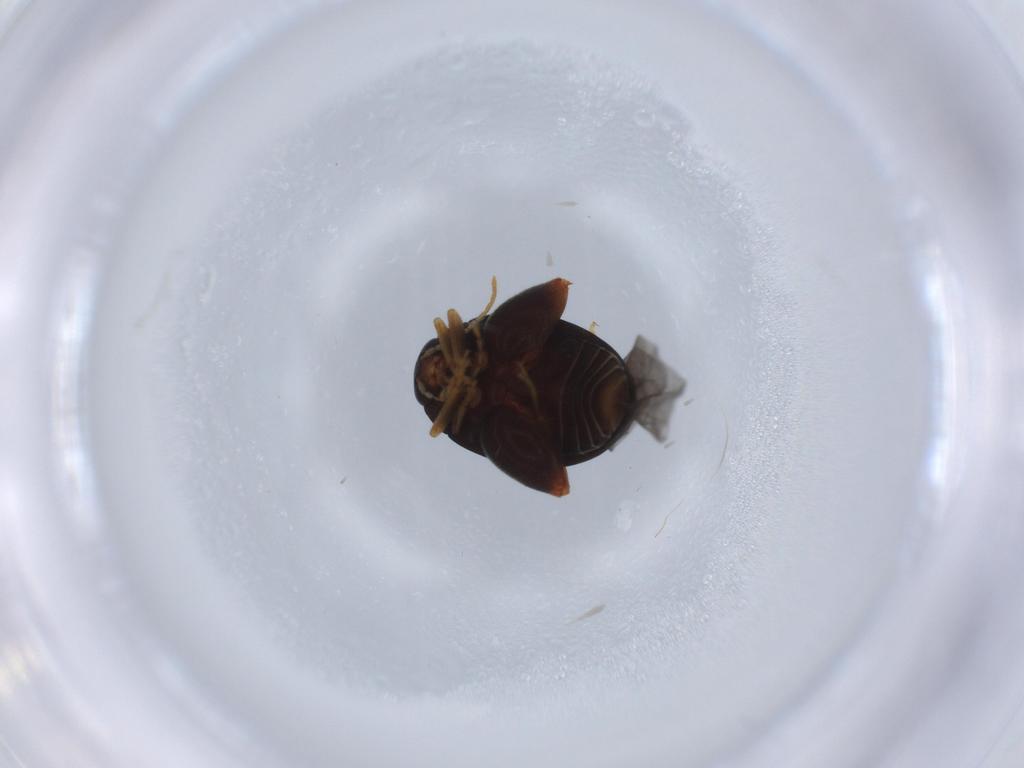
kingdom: Animalia
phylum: Arthropoda
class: Insecta
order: Coleoptera
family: Chrysomelidae
